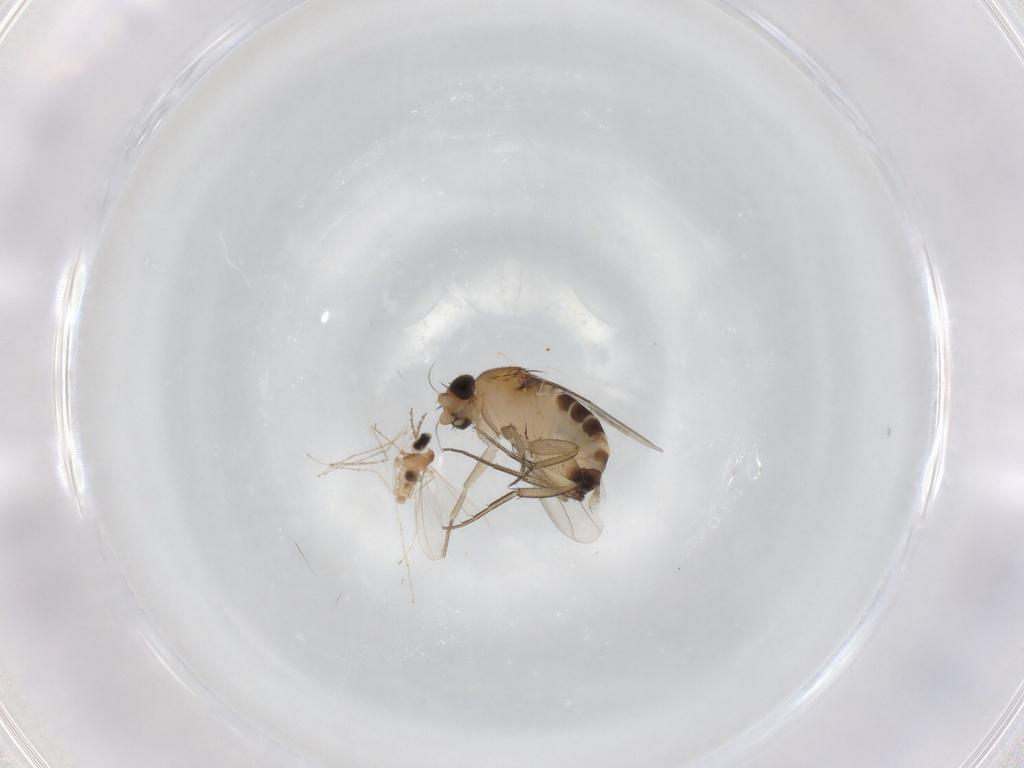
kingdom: Animalia
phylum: Arthropoda
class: Insecta
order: Diptera
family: Phoridae
